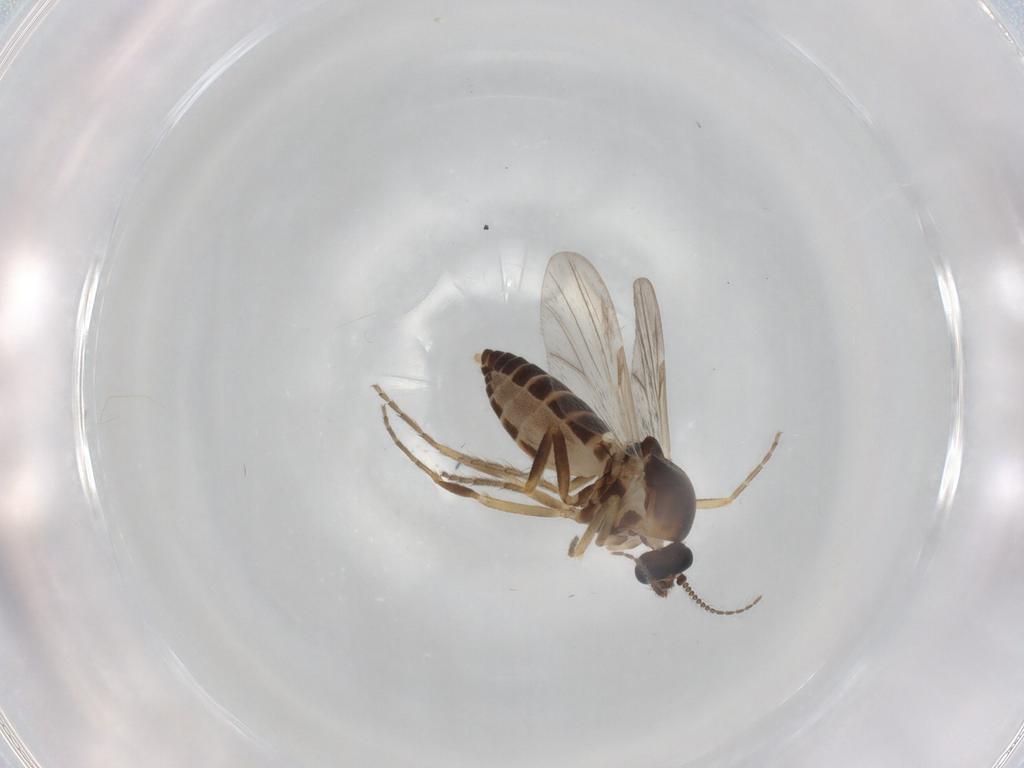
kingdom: Animalia
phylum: Arthropoda
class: Insecta
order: Diptera
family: Ceratopogonidae
